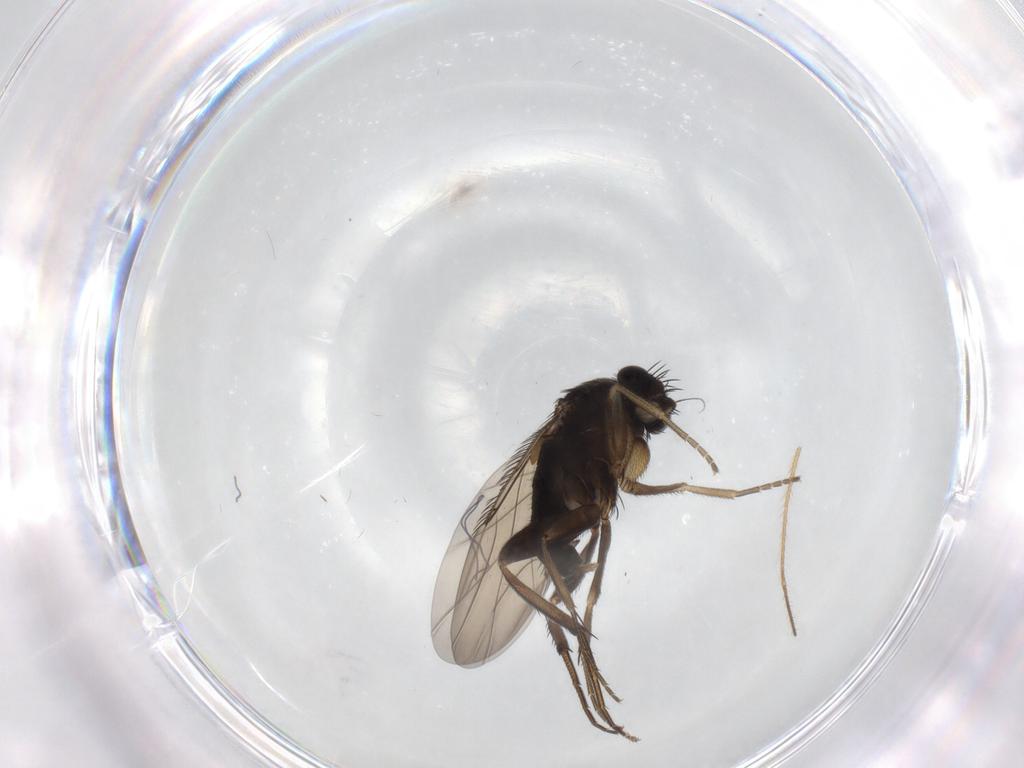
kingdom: Animalia
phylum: Arthropoda
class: Insecta
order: Diptera
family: Phoridae
